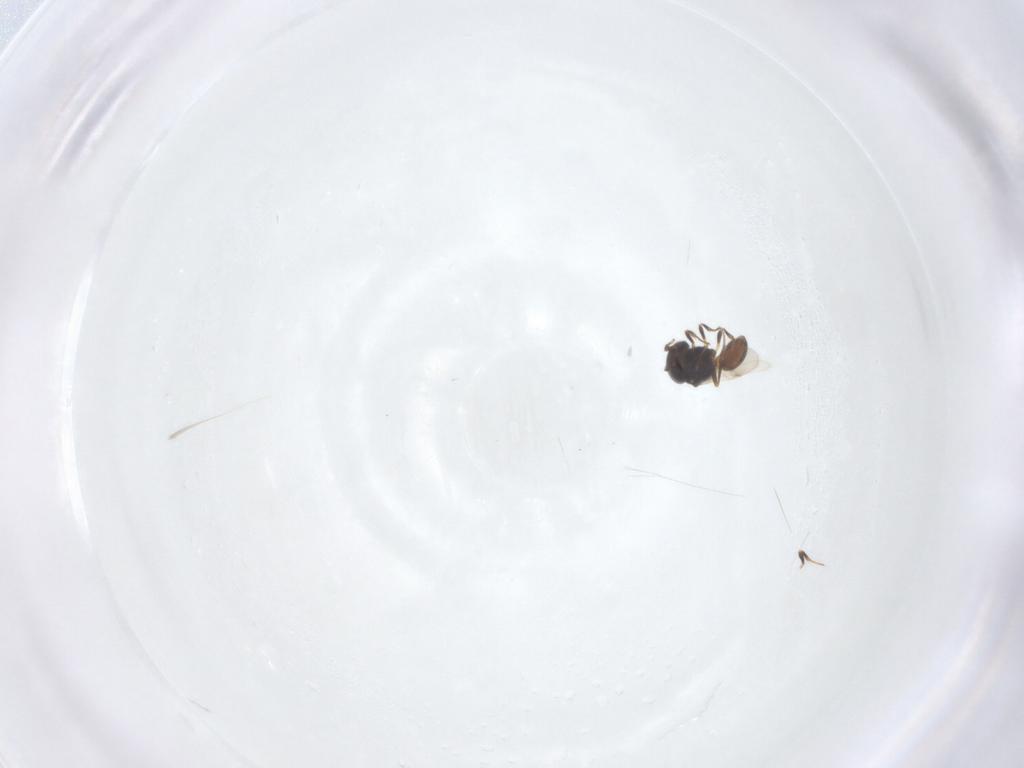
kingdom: Animalia
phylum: Arthropoda
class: Arachnida
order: Araneae
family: Pholcidae
